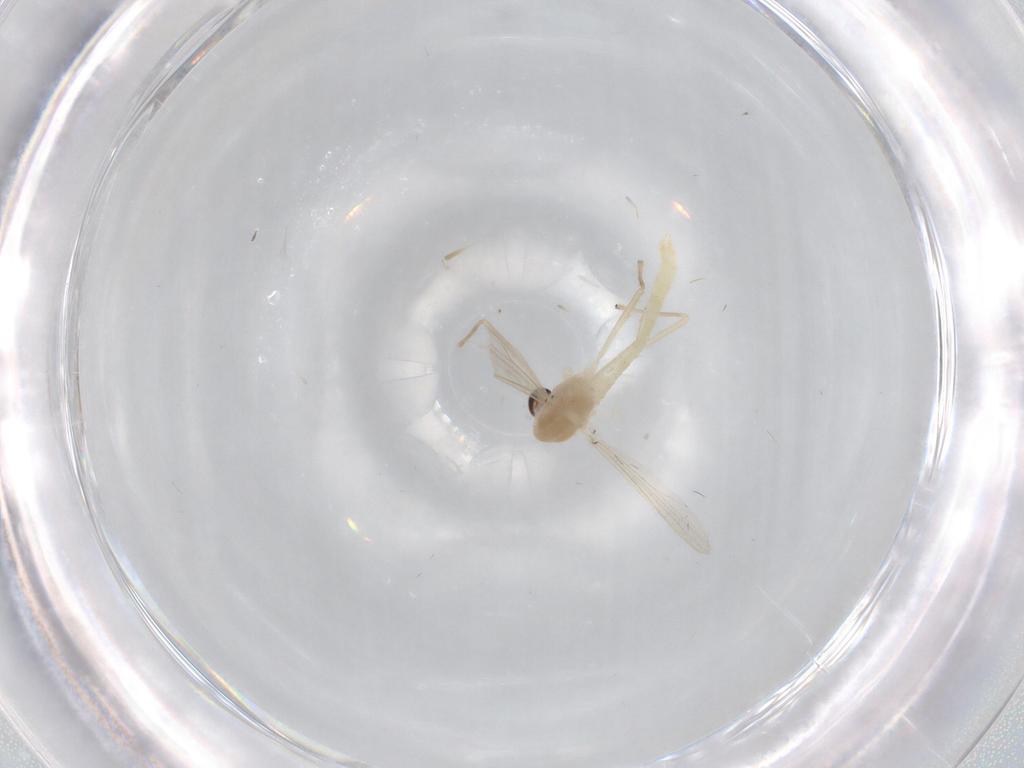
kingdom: Animalia
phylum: Arthropoda
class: Insecta
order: Diptera
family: Chironomidae
